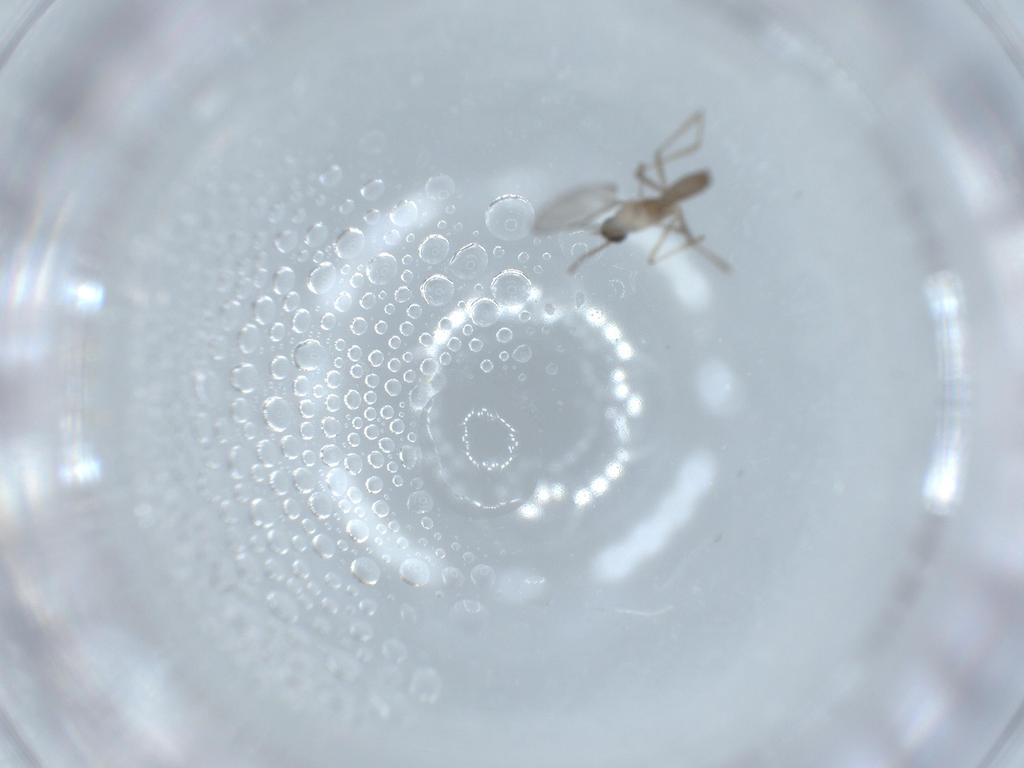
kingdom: Animalia
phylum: Arthropoda
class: Insecta
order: Diptera
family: Cecidomyiidae
